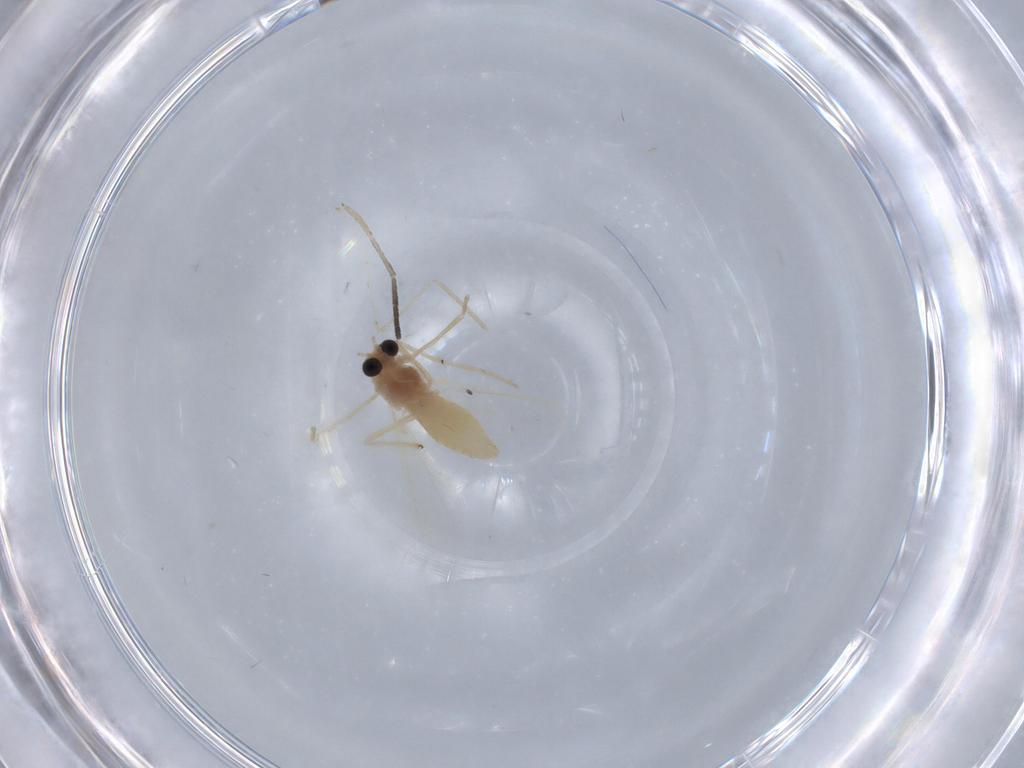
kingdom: Animalia
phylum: Arthropoda
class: Insecta
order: Diptera
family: Chironomidae
